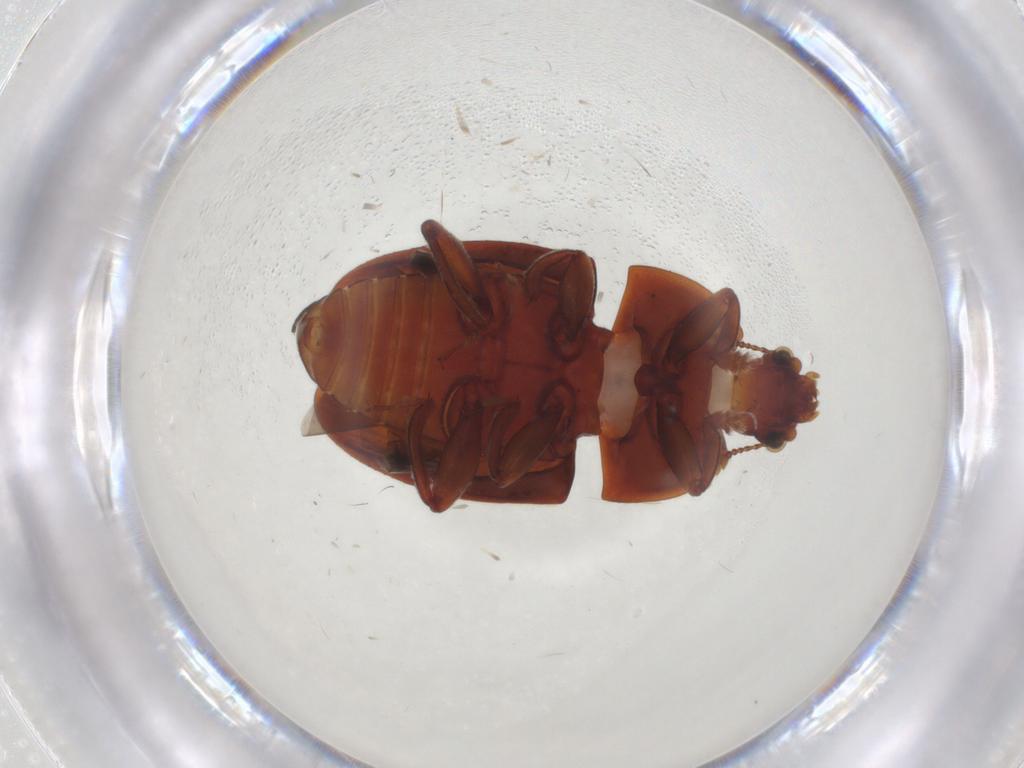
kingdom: Animalia
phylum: Arthropoda
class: Insecta
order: Coleoptera
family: Nitidulidae
